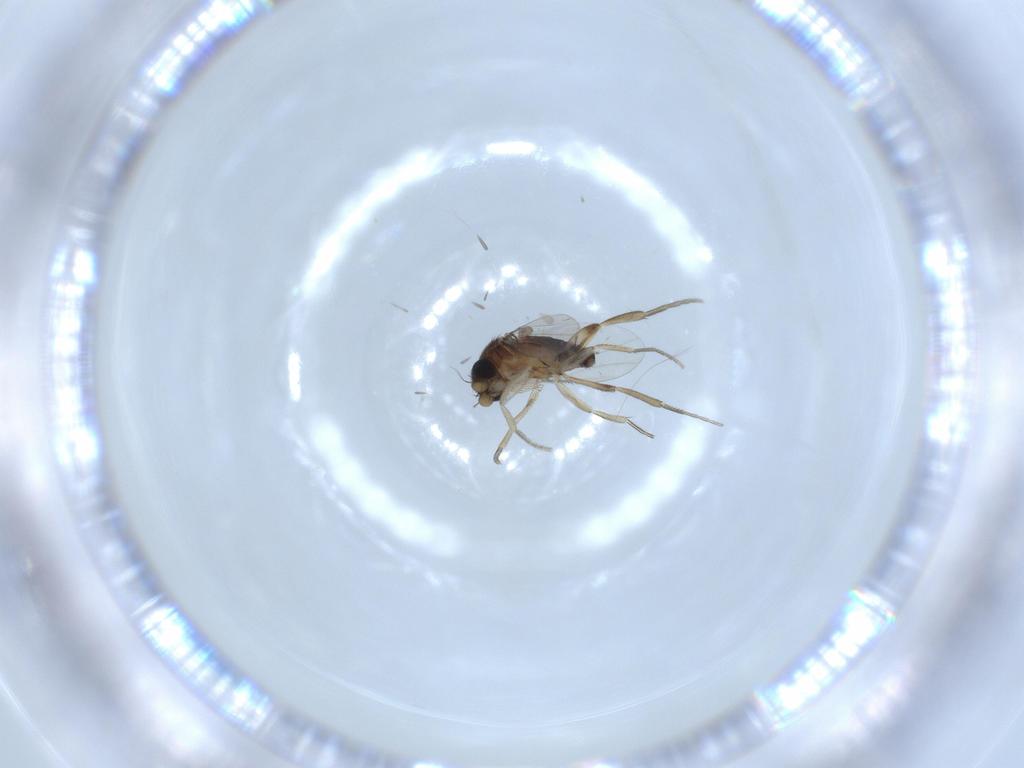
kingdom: Animalia
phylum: Arthropoda
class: Insecta
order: Diptera
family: Phoridae
